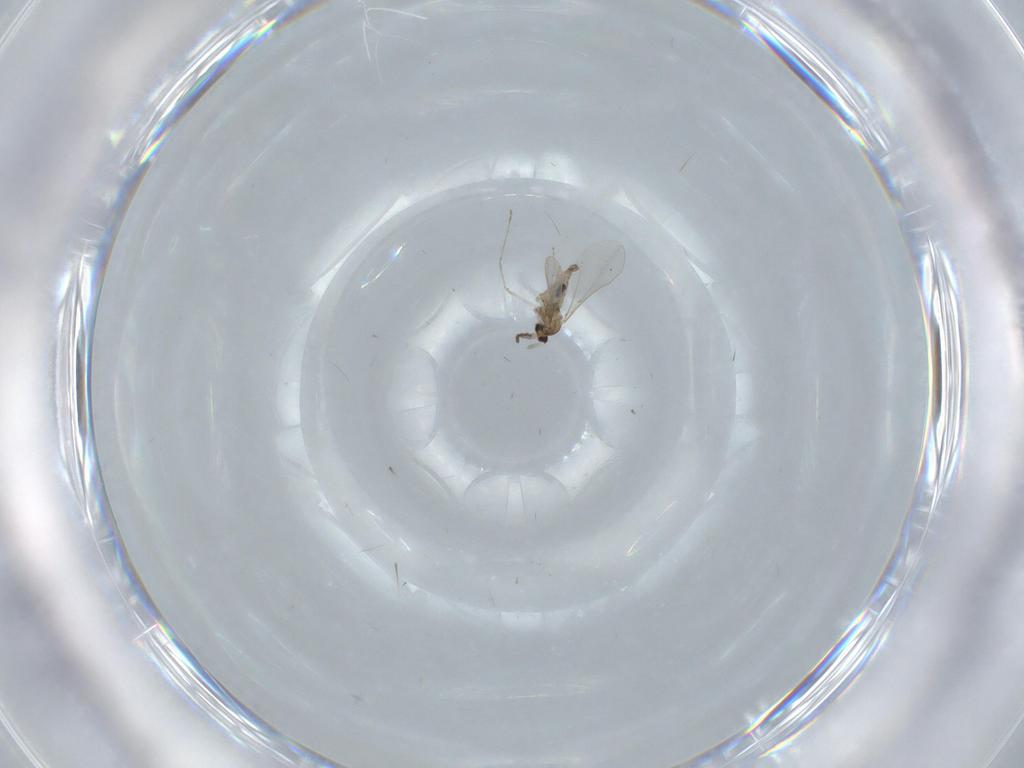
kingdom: Animalia
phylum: Arthropoda
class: Insecta
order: Diptera
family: Cecidomyiidae
